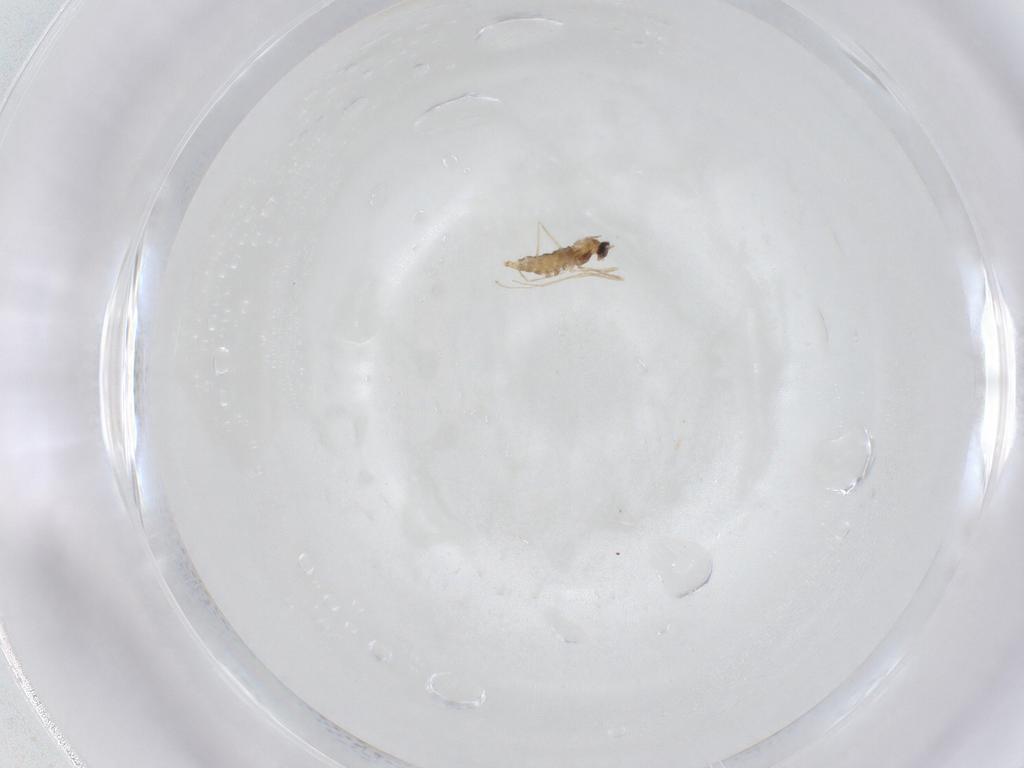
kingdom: Animalia
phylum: Arthropoda
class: Insecta
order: Diptera
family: Cecidomyiidae
